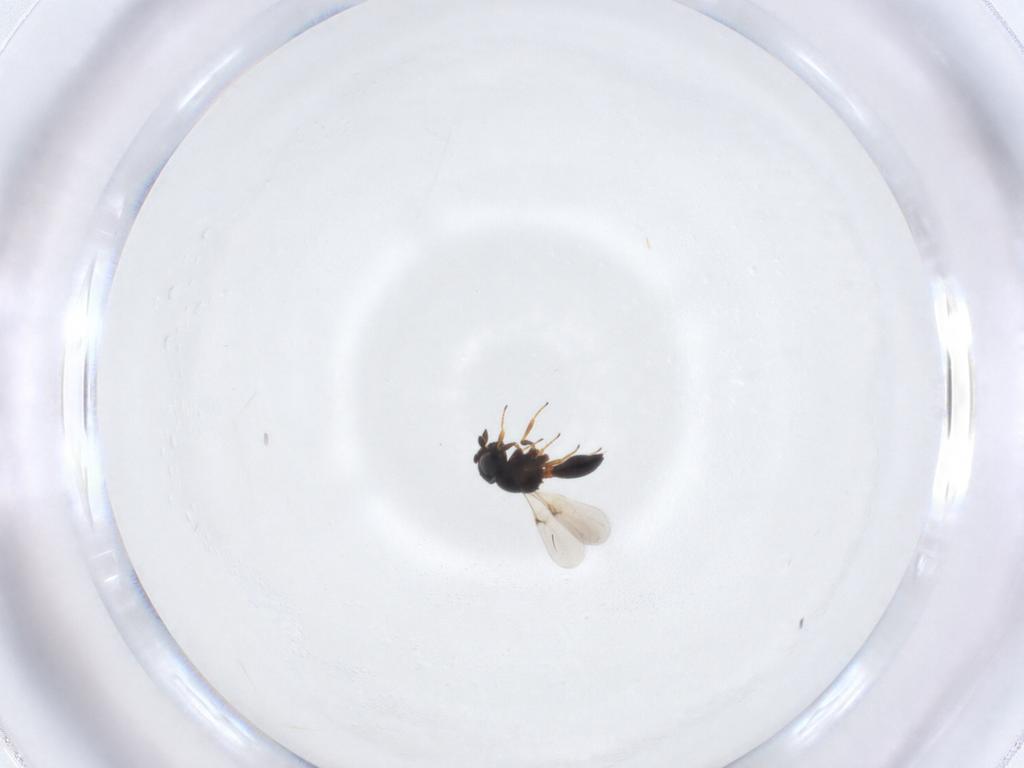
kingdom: Animalia
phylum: Arthropoda
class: Arachnida
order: Araneae
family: Pholcidae
